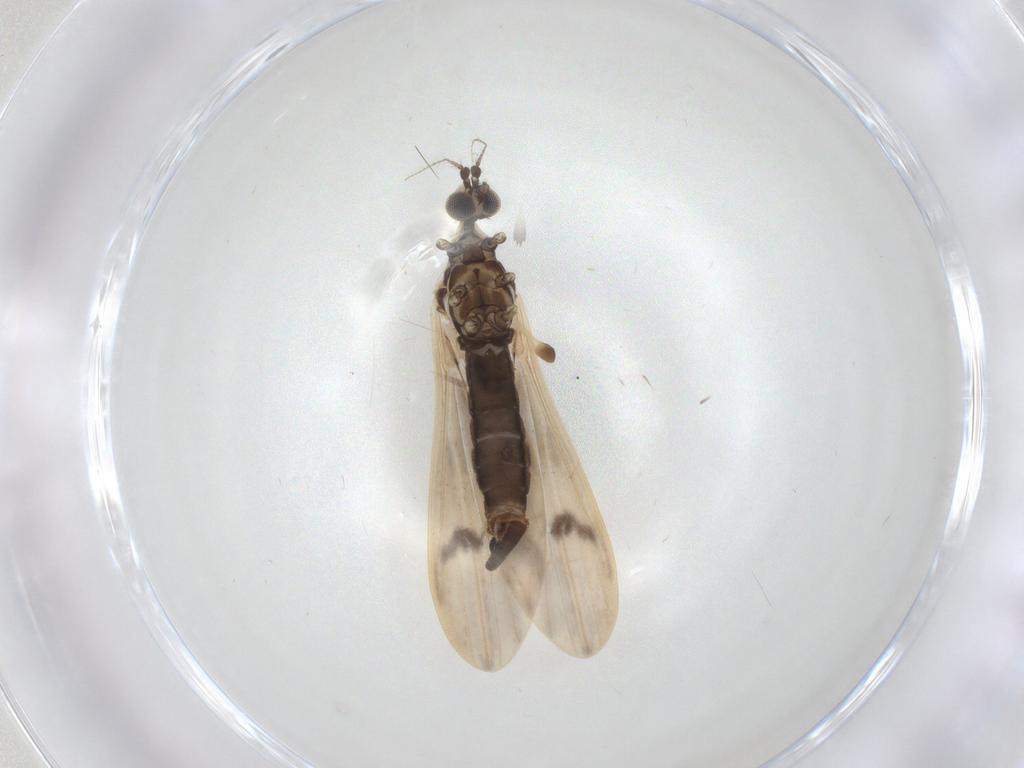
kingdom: Animalia
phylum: Arthropoda
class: Insecta
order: Diptera
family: Limoniidae
